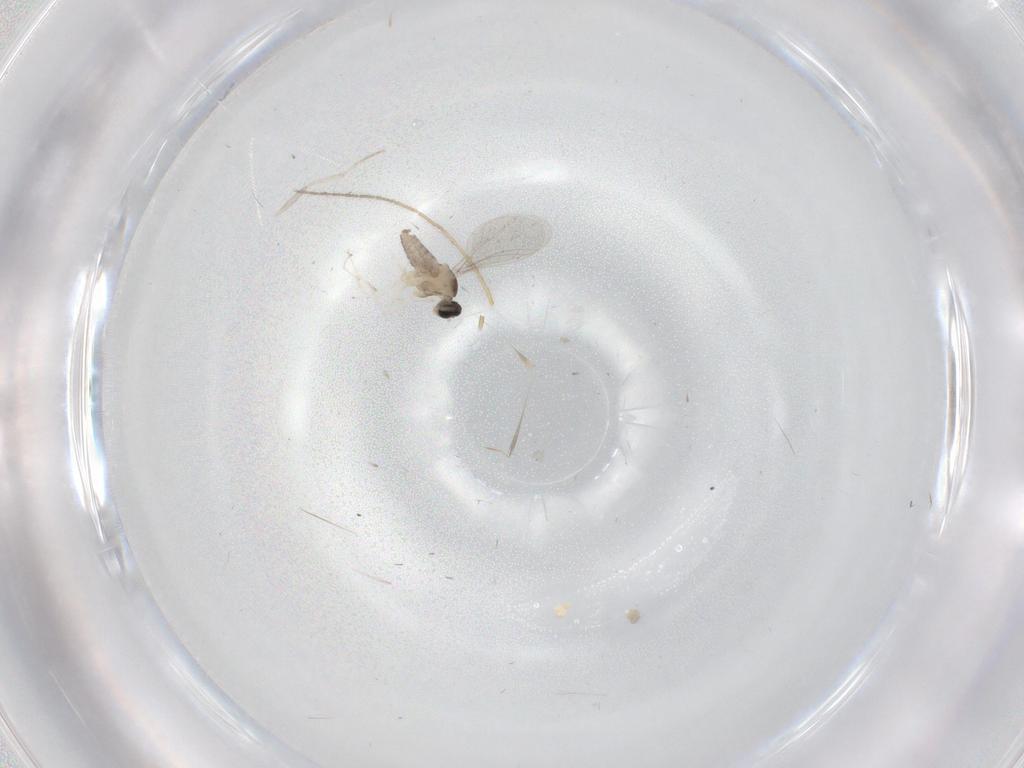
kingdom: Animalia
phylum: Arthropoda
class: Insecta
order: Diptera
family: Cecidomyiidae
